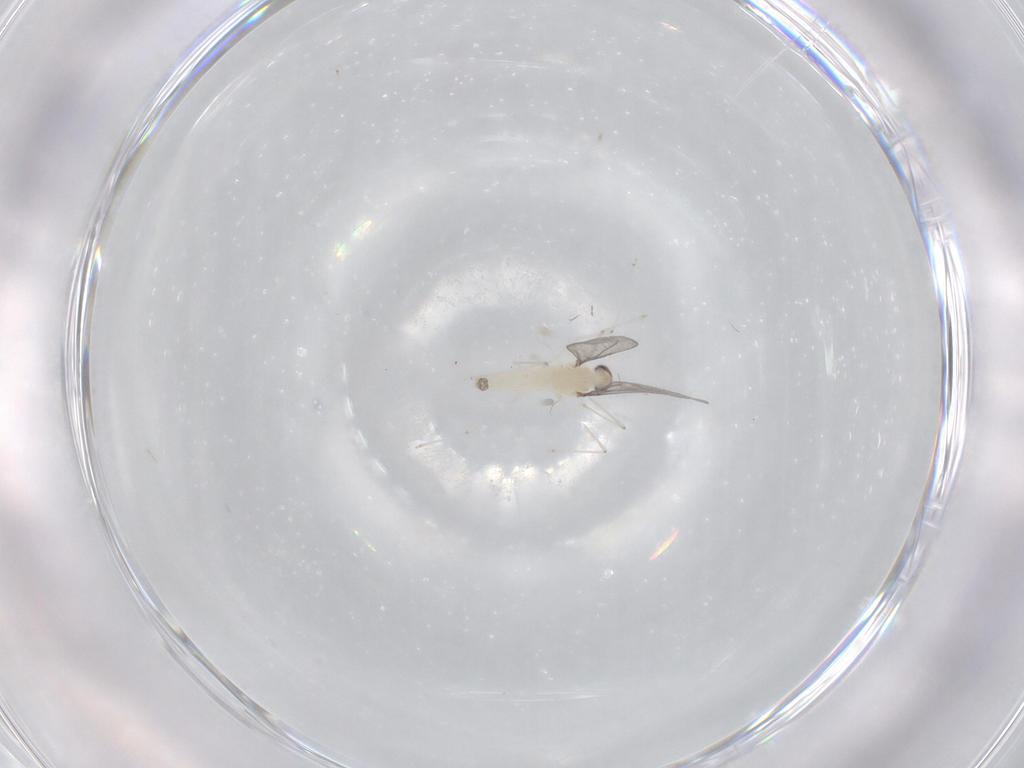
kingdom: Animalia
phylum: Arthropoda
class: Insecta
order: Diptera
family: Cecidomyiidae
